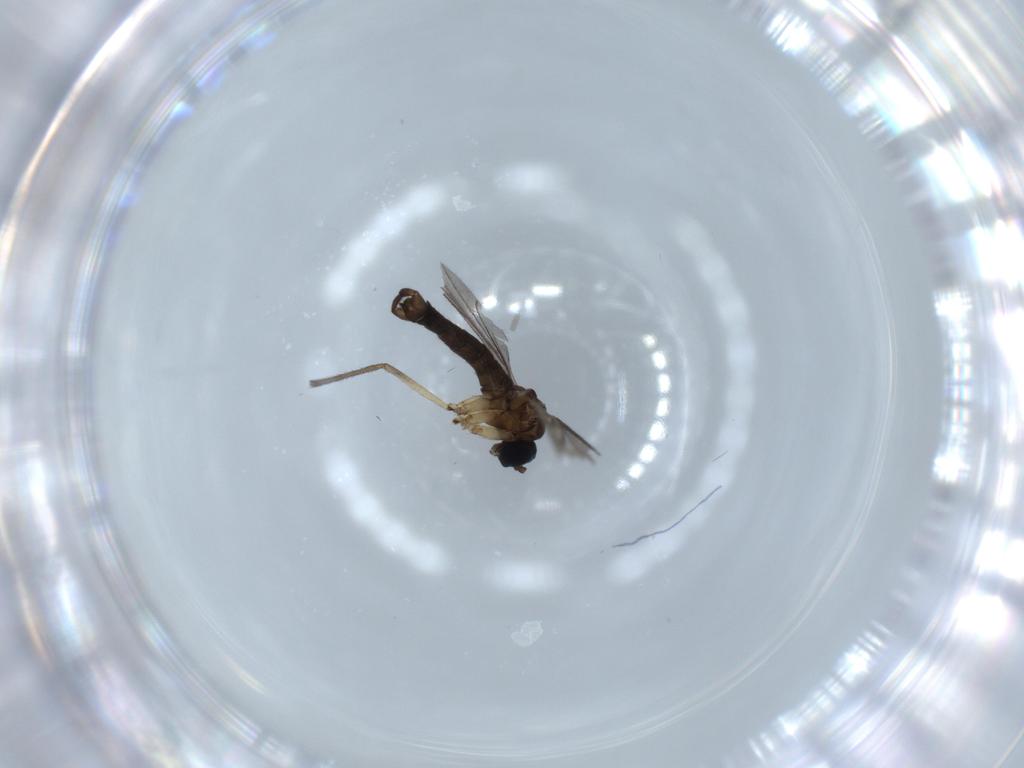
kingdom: Animalia
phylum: Arthropoda
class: Insecta
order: Diptera
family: Sciaridae
